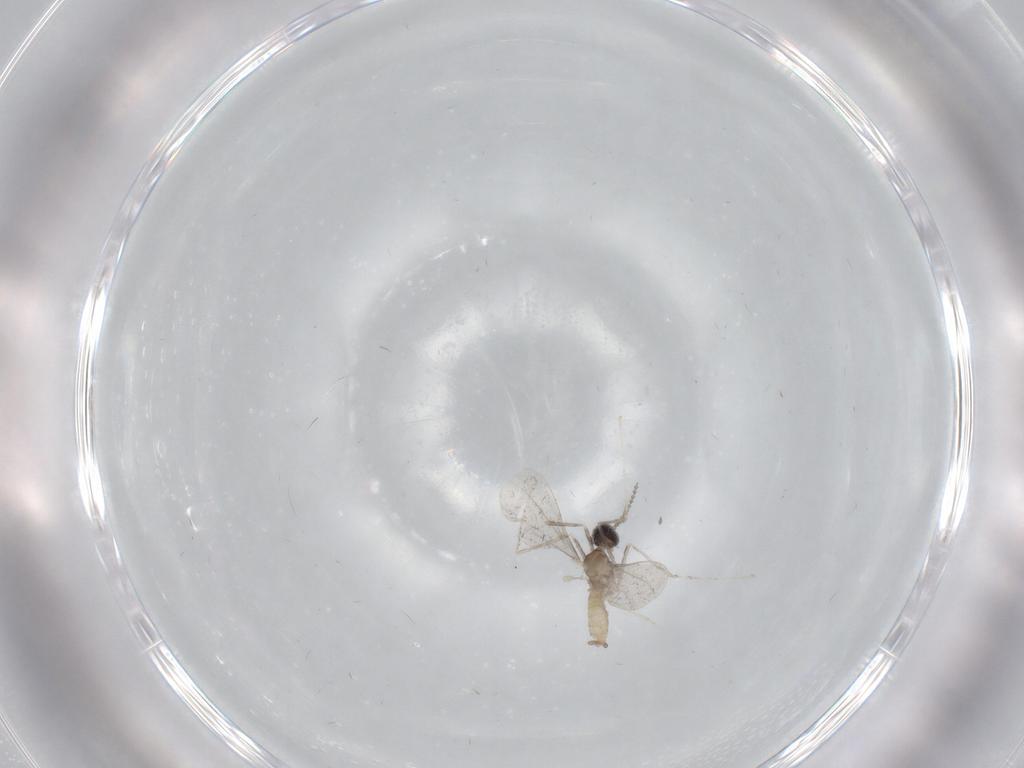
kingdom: Animalia
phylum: Arthropoda
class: Insecta
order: Diptera
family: Cecidomyiidae
